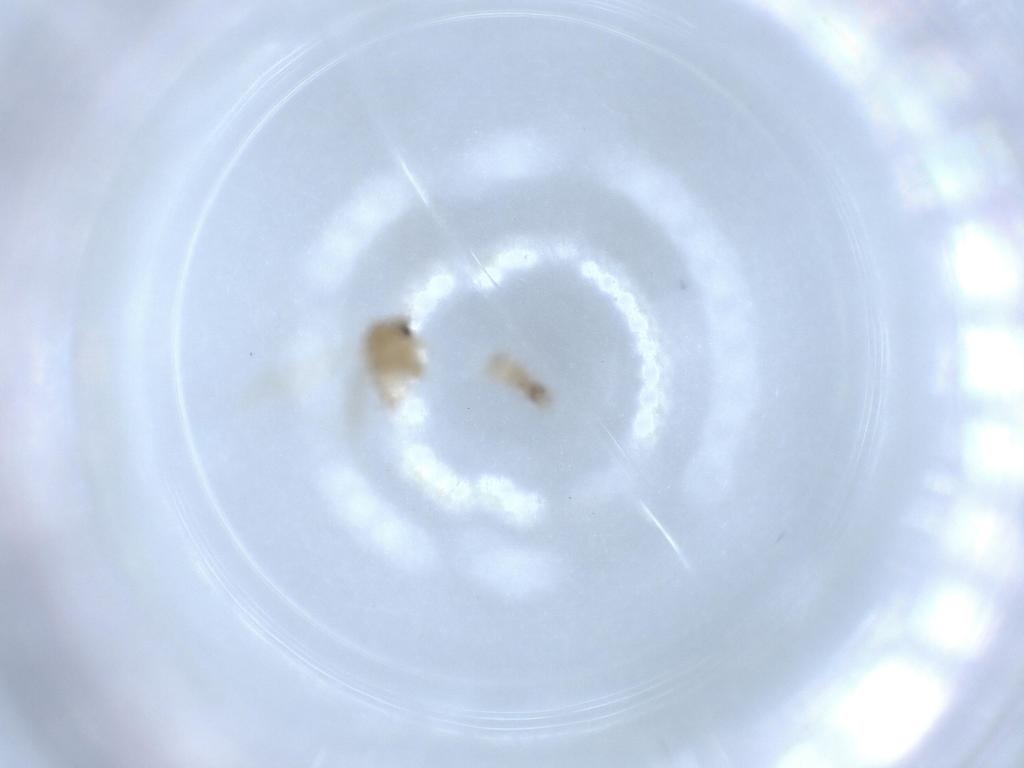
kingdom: Animalia
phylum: Arthropoda
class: Insecta
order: Diptera
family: Psychodidae
